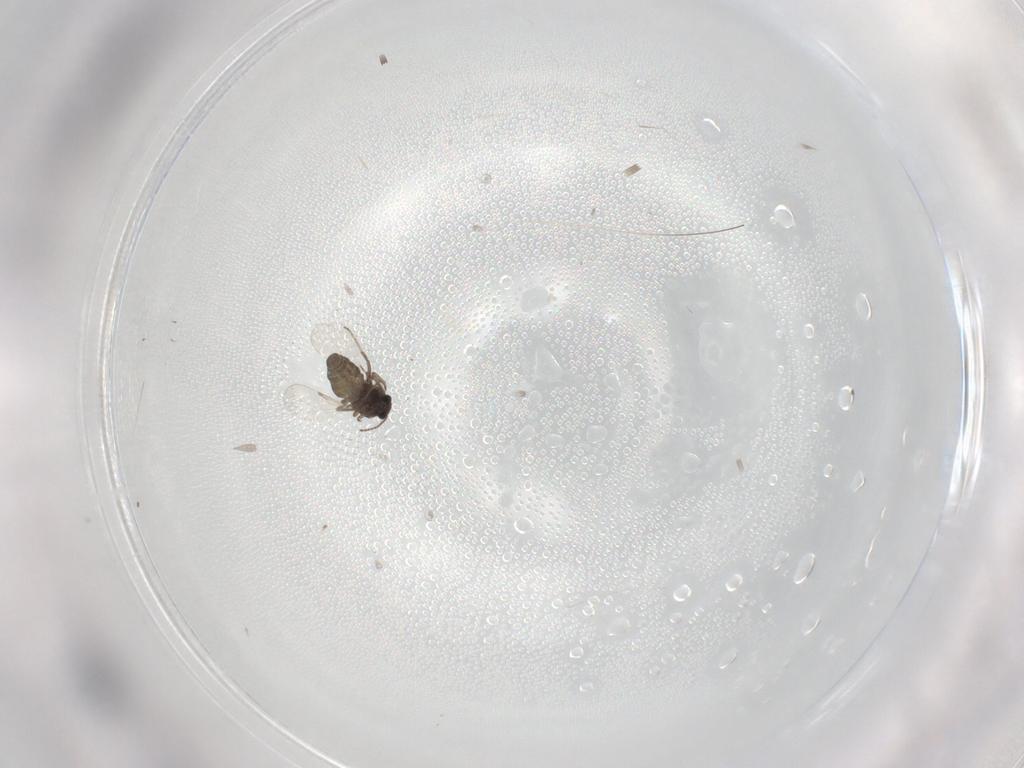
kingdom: Animalia
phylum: Arthropoda
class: Insecta
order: Diptera
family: Ceratopogonidae
